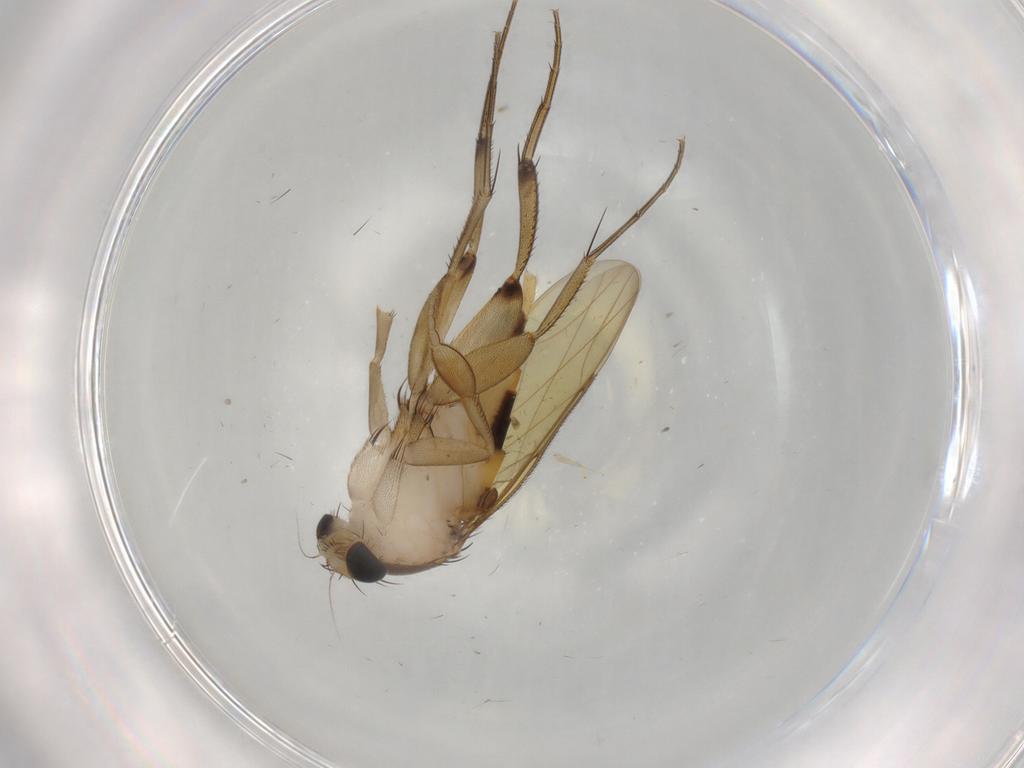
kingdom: Animalia
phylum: Arthropoda
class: Insecta
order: Diptera
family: Phoridae
